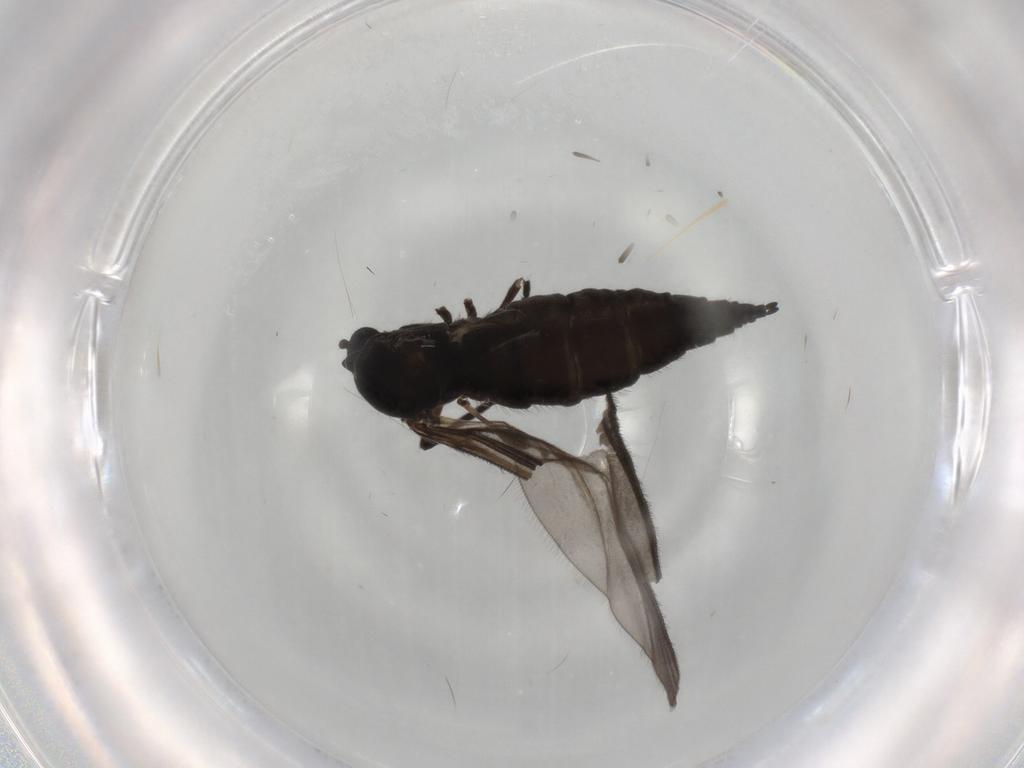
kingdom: Animalia
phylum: Arthropoda
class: Insecta
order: Diptera
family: Sciaridae
